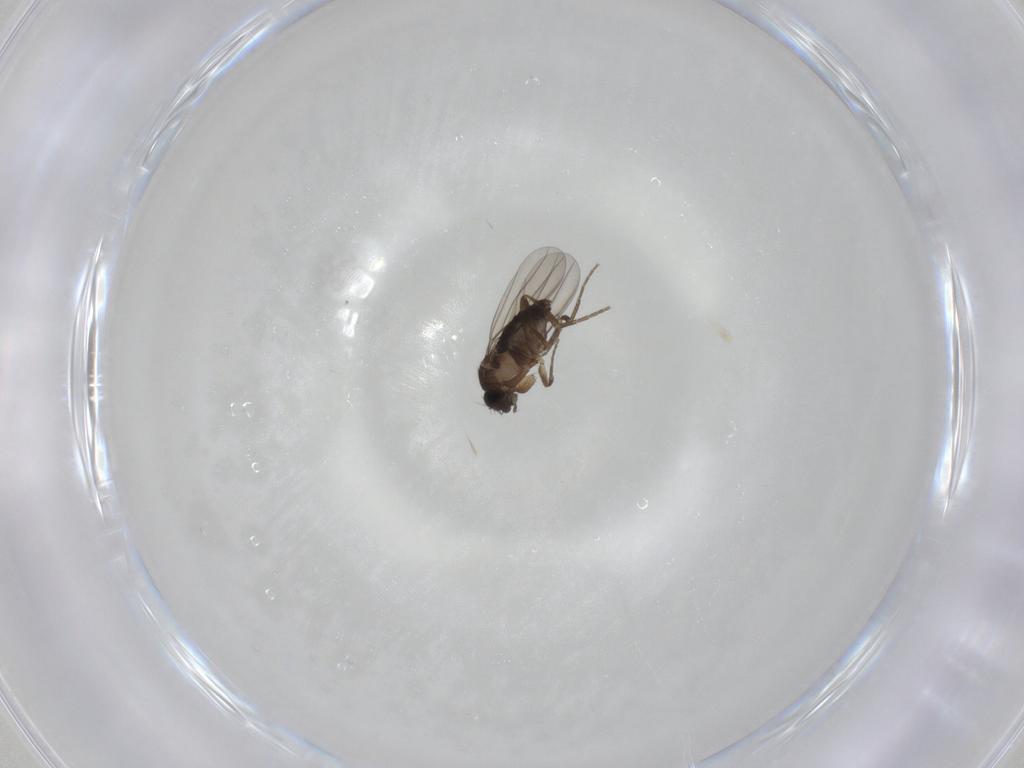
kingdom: Animalia
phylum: Arthropoda
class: Insecta
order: Diptera
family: Phoridae
